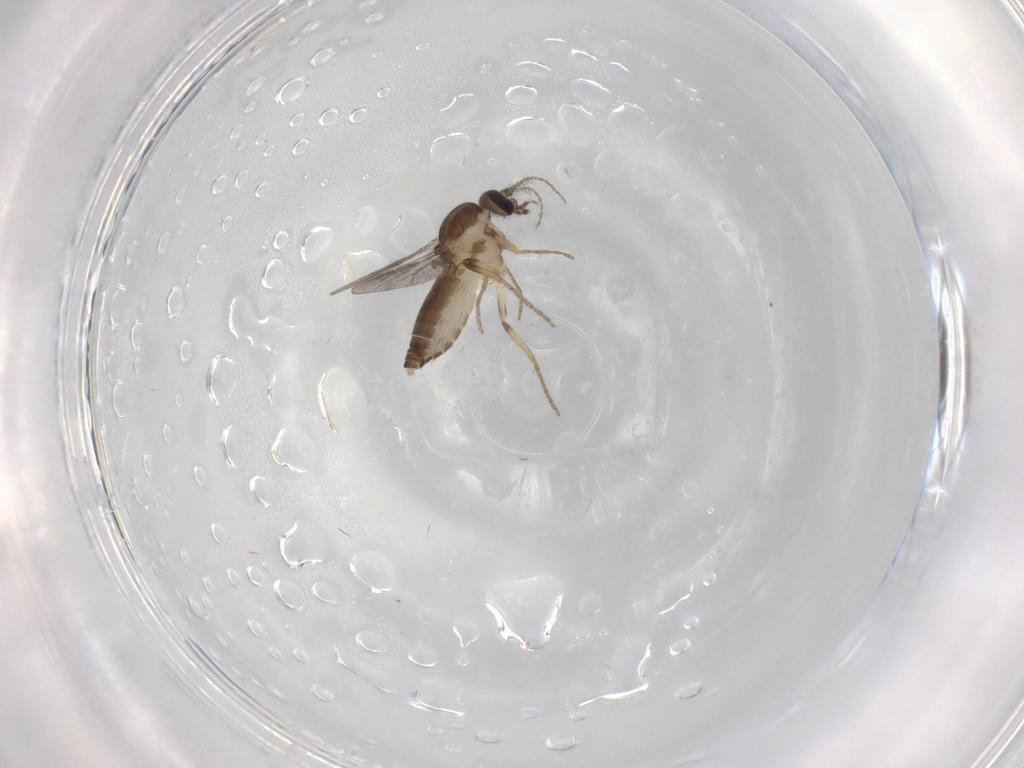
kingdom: Animalia
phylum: Arthropoda
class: Insecta
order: Diptera
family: Ceratopogonidae
